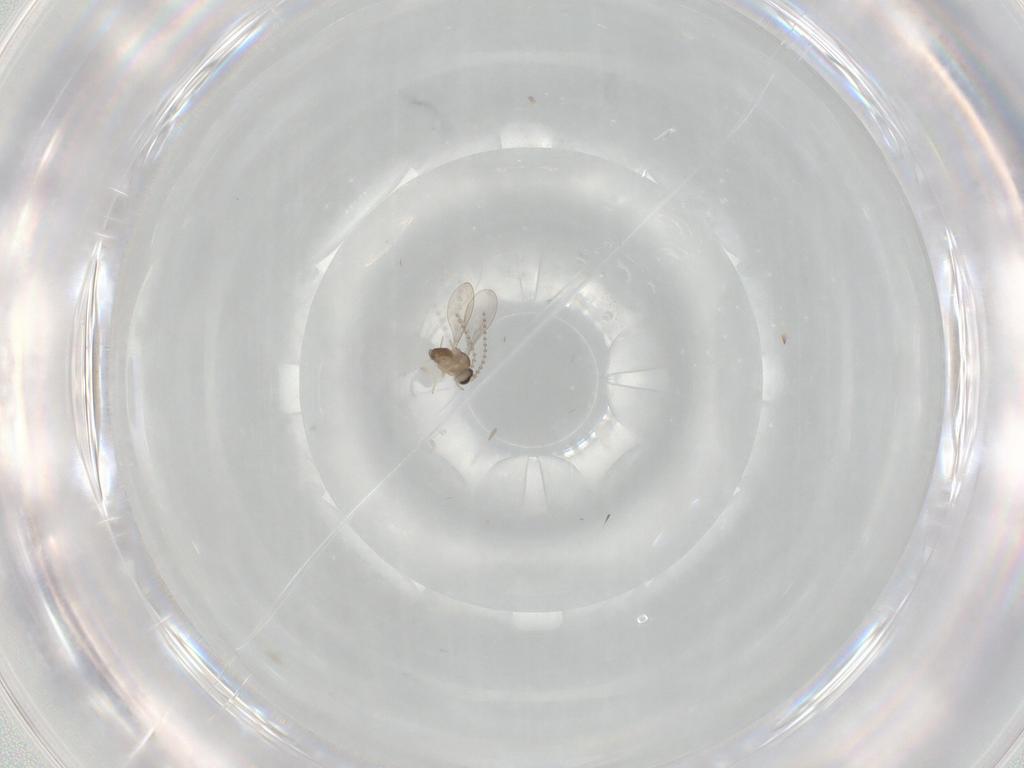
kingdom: Animalia
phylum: Arthropoda
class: Insecta
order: Diptera
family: Cecidomyiidae
